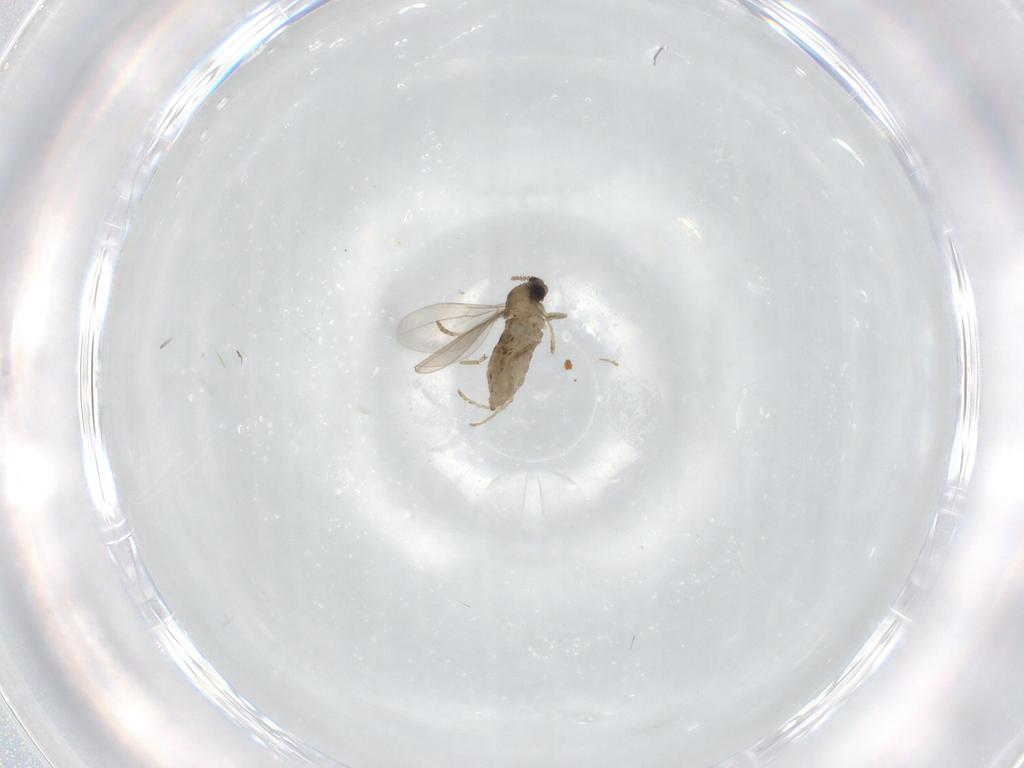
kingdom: Animalia
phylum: Arthropoda
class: Insecta
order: Diptera
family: Cecidomyiidae
